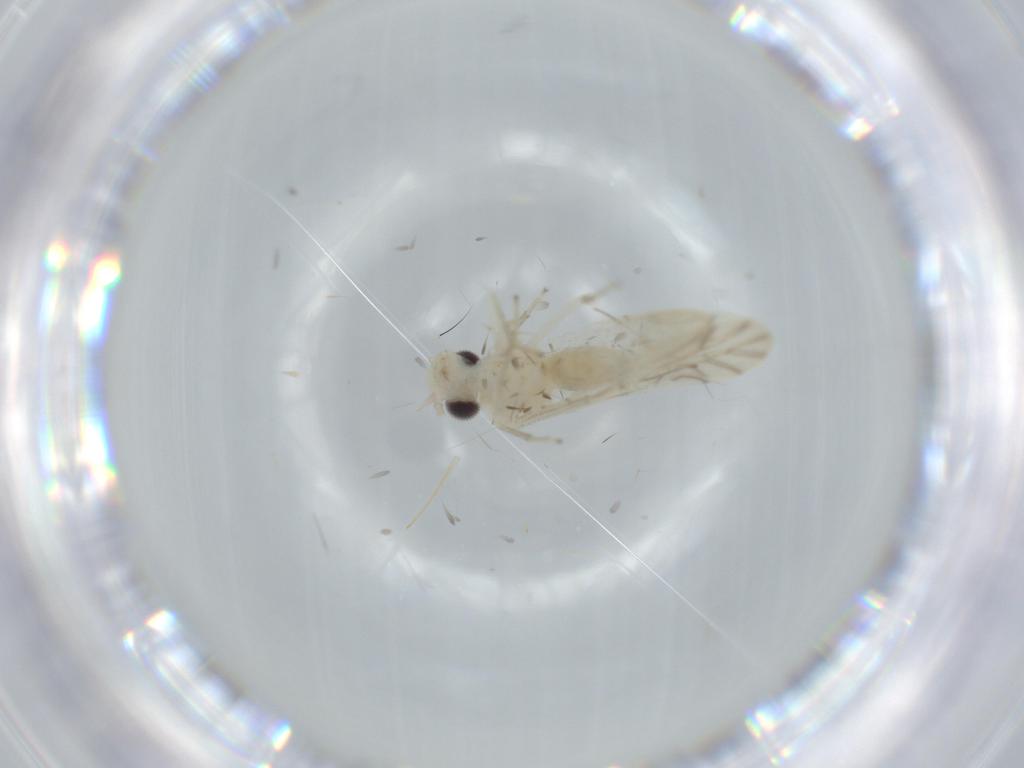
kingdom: Animalia
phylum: Arthropoda
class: Insecta
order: Psocodea
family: Caeciliusidae
